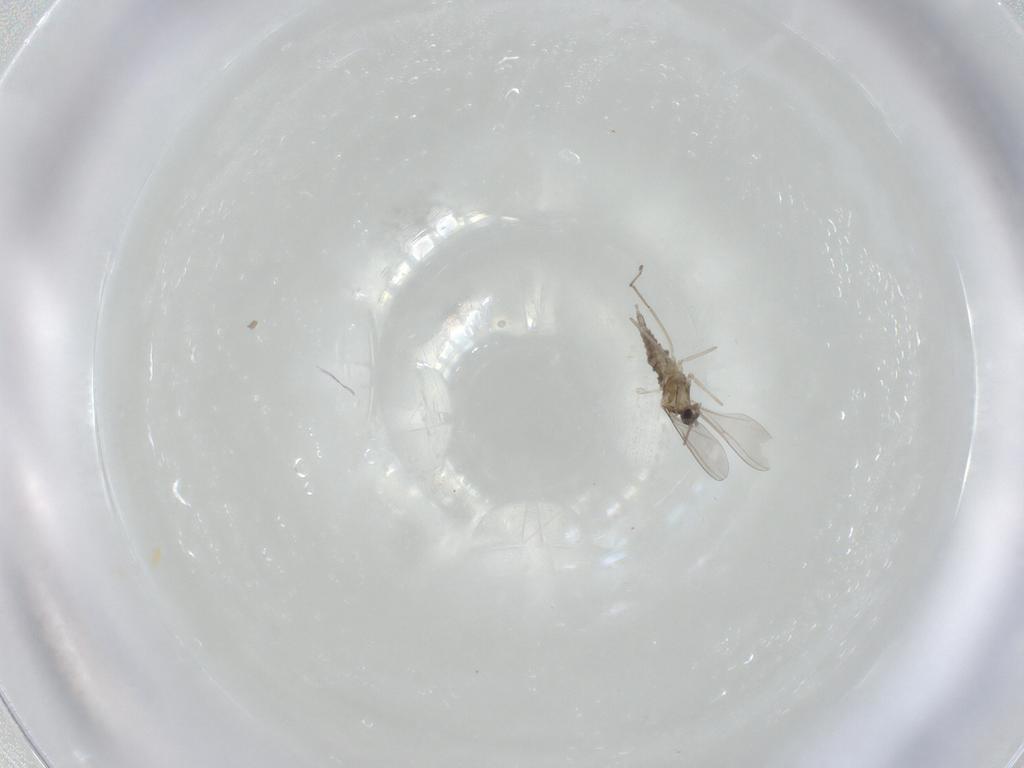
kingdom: Animalia
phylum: Arthropoda
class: Insecta
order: Diptera
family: Cecidomyiidae
